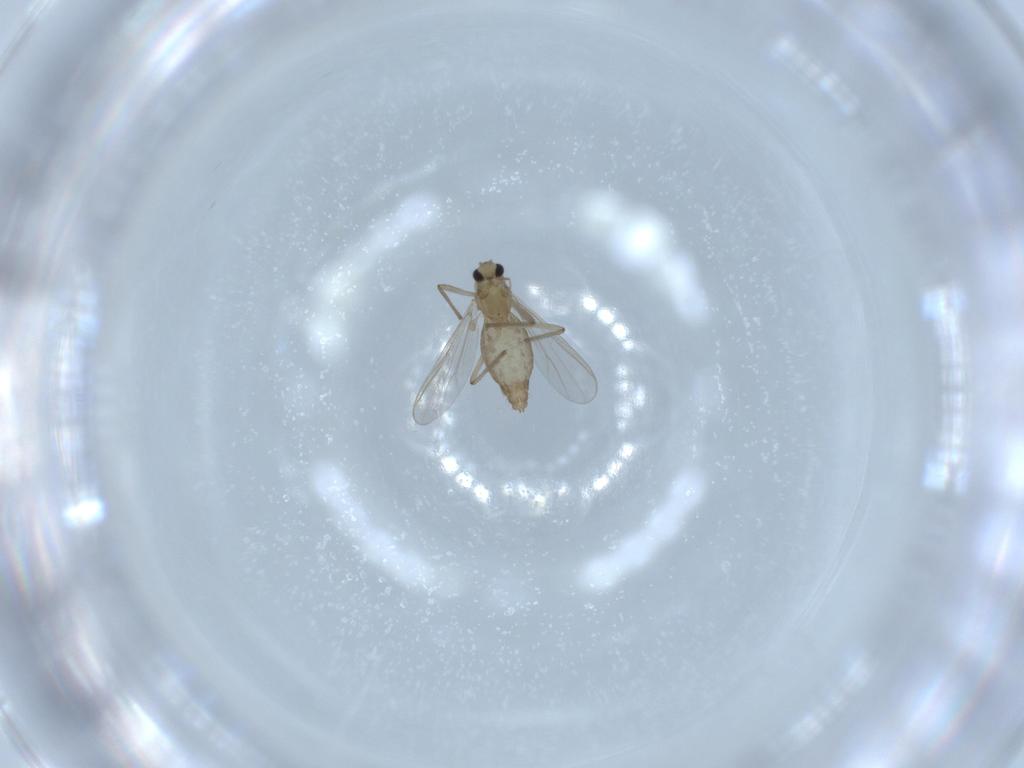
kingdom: Animalia
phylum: Arthropoda
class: Insecta
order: Diptera
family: Chironomidae
